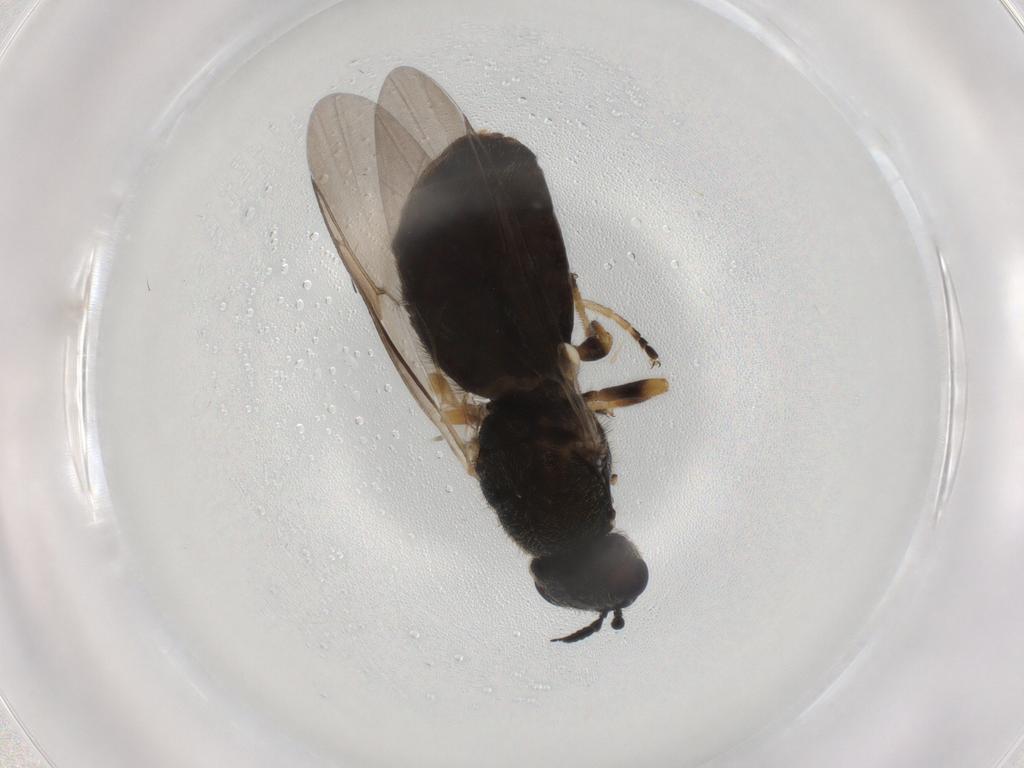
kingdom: Animalia
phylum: Arthropoda
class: Insecta
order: Diptera
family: Stratiomyidae
